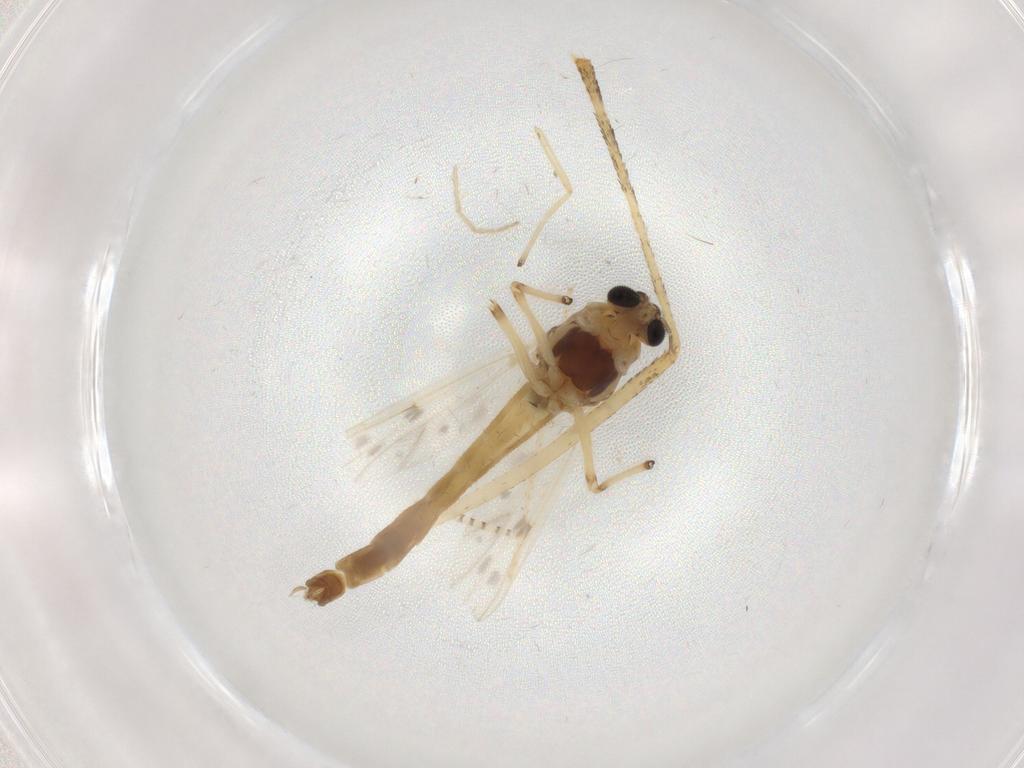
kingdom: Animalia
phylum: Arthropoda
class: Insecta
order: Diptera
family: Chironomidae
